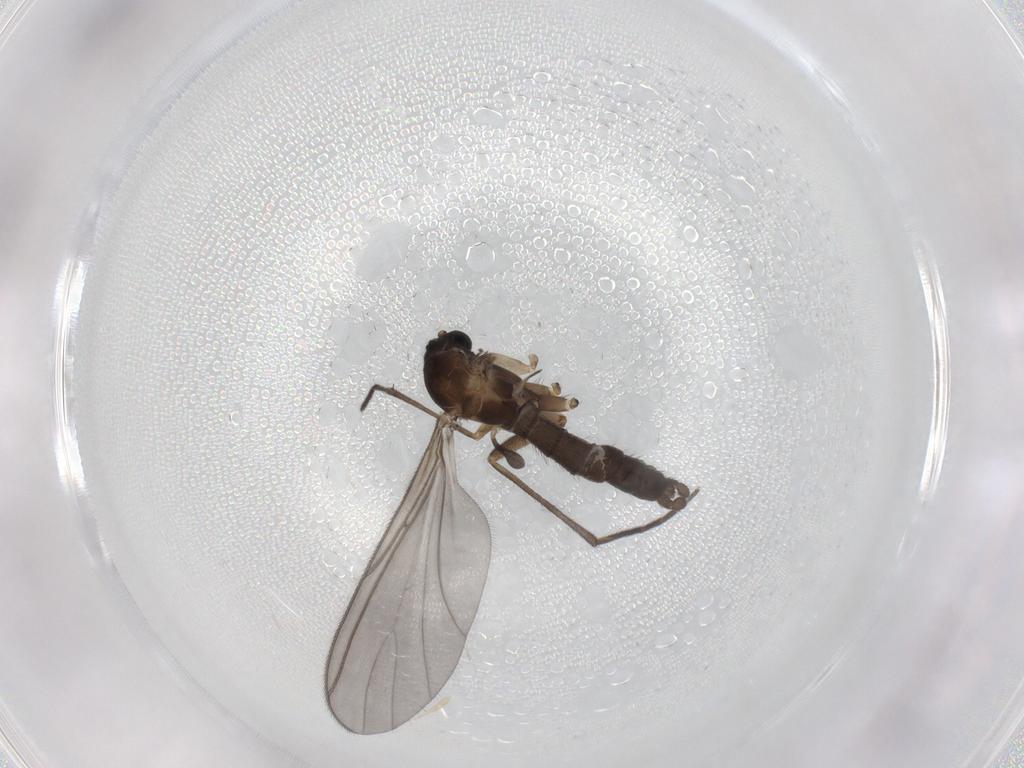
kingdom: Animalia
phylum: Arthropoda
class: Insecta
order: Diptera
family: Sciaridae
